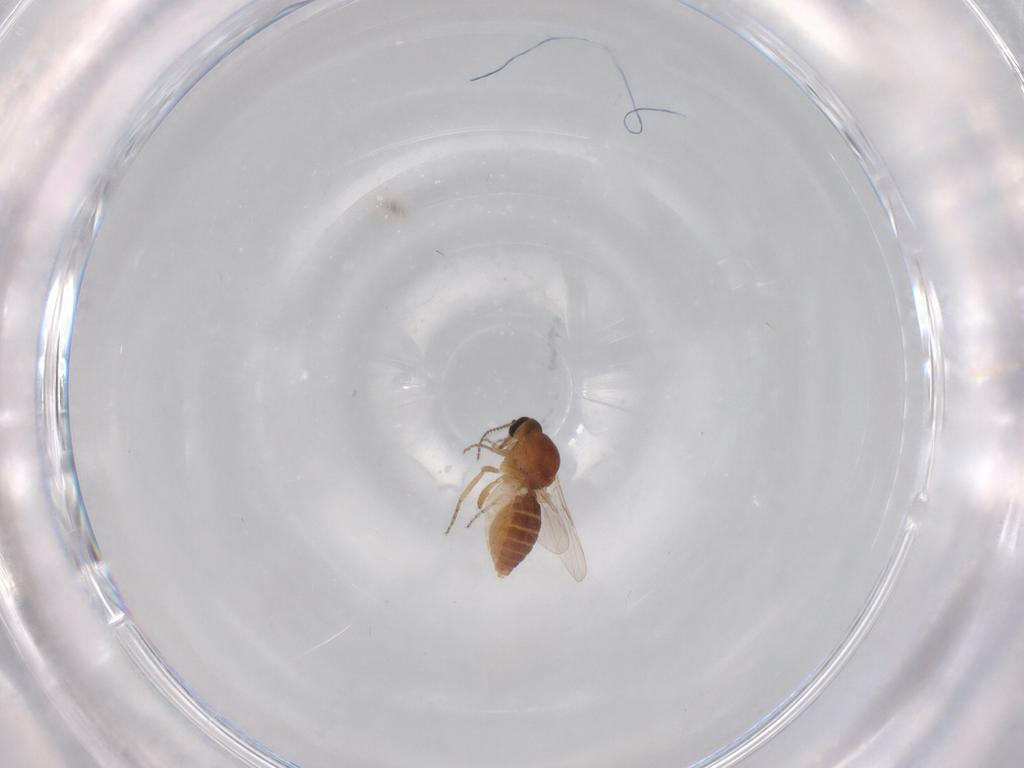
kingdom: Animalia
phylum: Arthropoda
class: Insecta
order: Diptera
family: Ceratopogonidae
